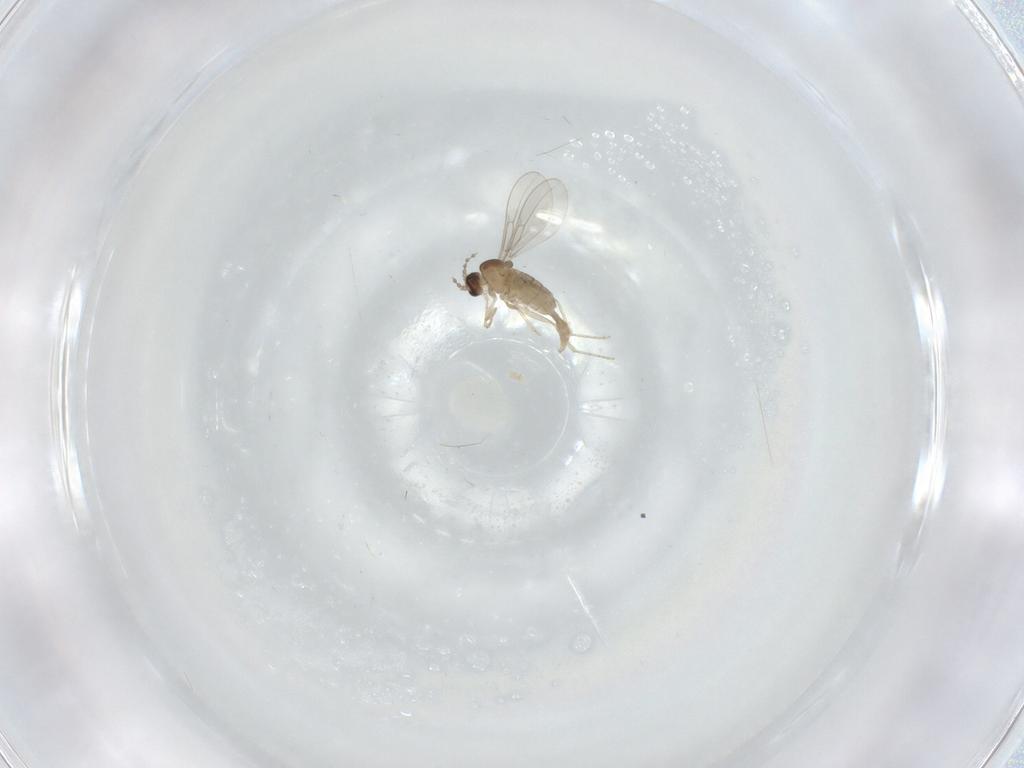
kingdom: Animalia
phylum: Arthropoda
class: Insecta
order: Diptera
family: Cecidomyiidae
